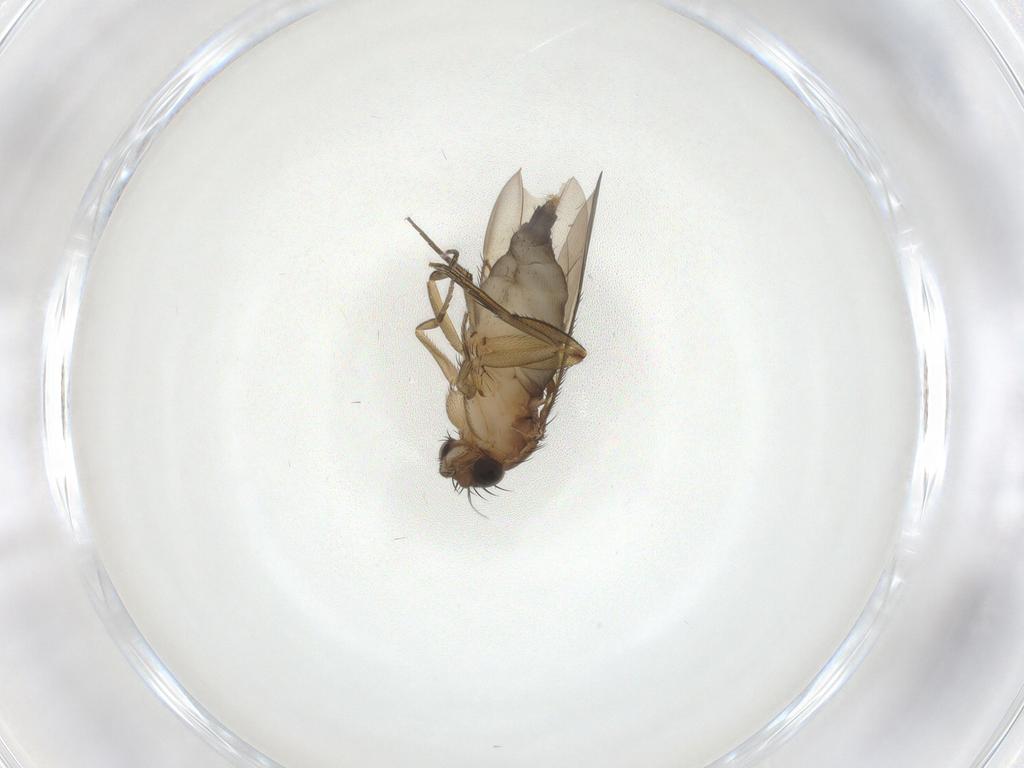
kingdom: Animalia
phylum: Arthropoda
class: Insecta
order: Diptera
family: Phoridae
